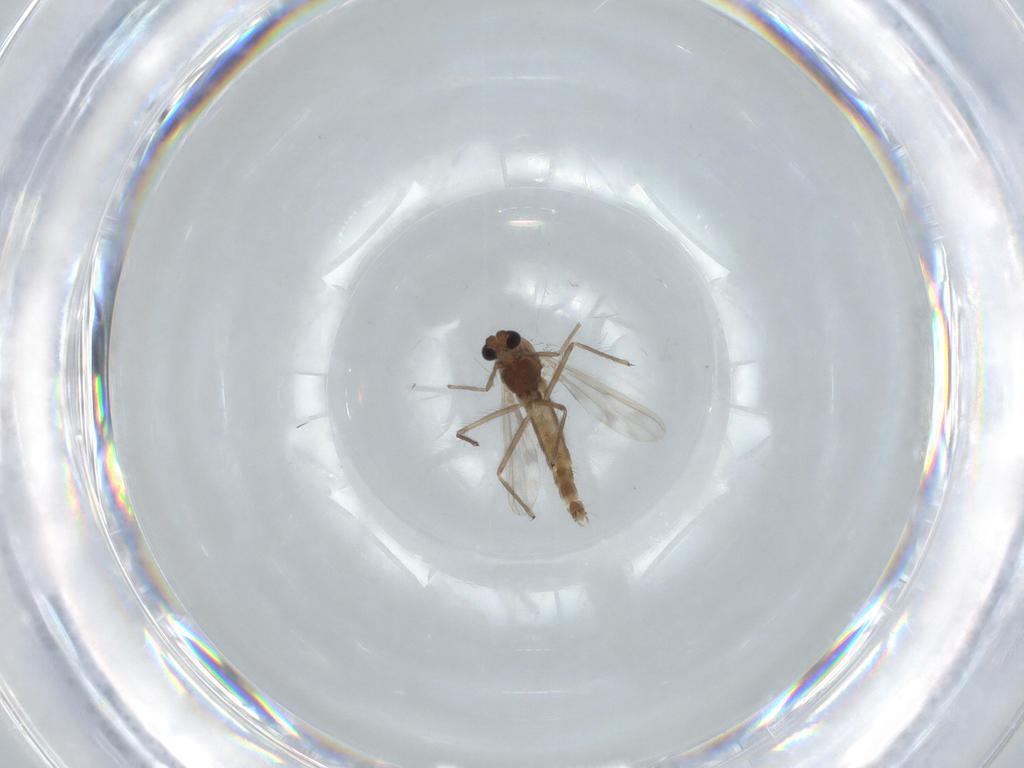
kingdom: Animalia
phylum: Arthropoda
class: Insecta
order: Diptera
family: Chironomidae
